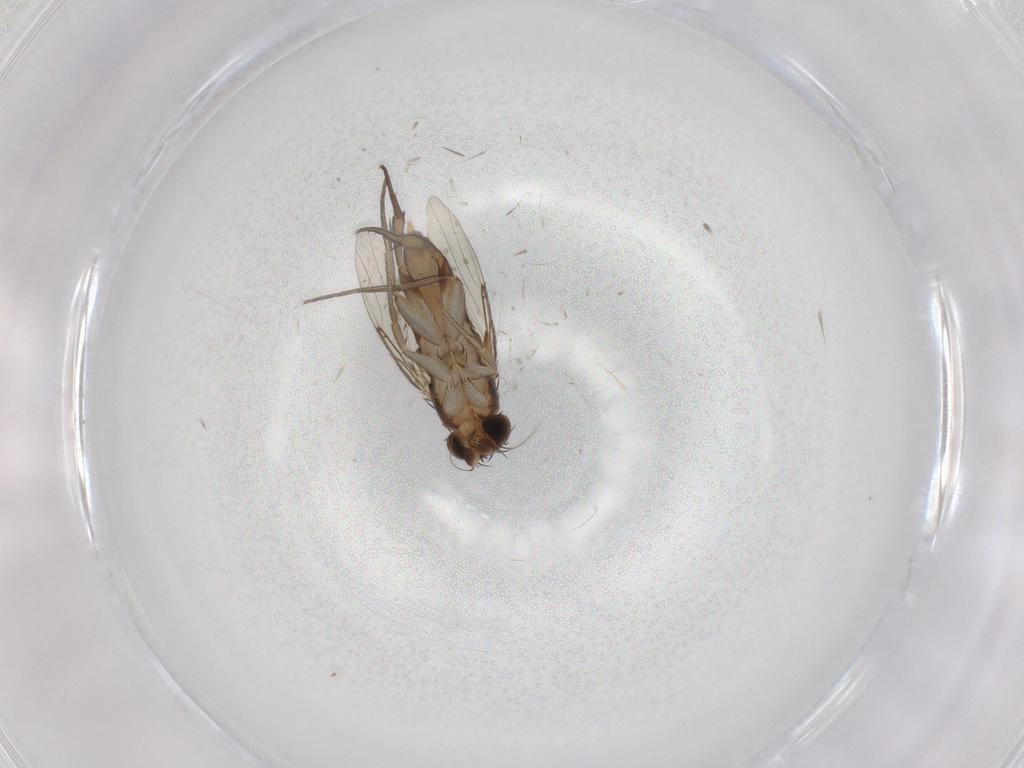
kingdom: Animalia
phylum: Arthropoda
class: Insecta
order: Diptera
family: Phoridae
